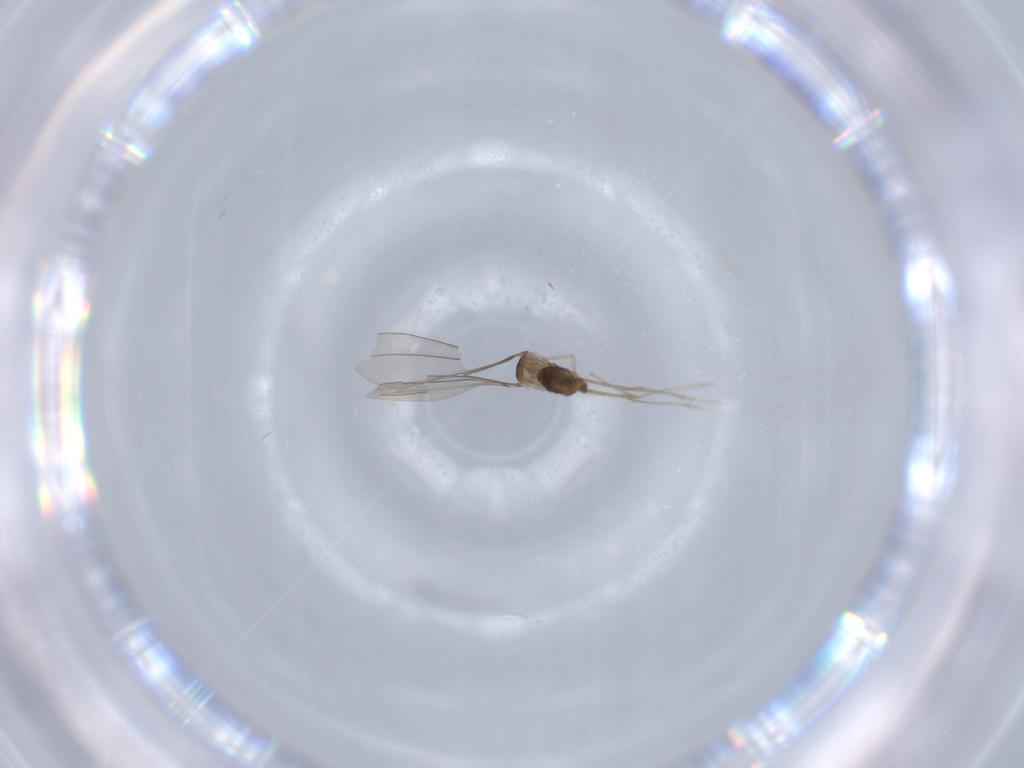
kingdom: Animalia
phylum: Arthropoda
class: Insecta
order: Diptera
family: Cecidomyiidae
